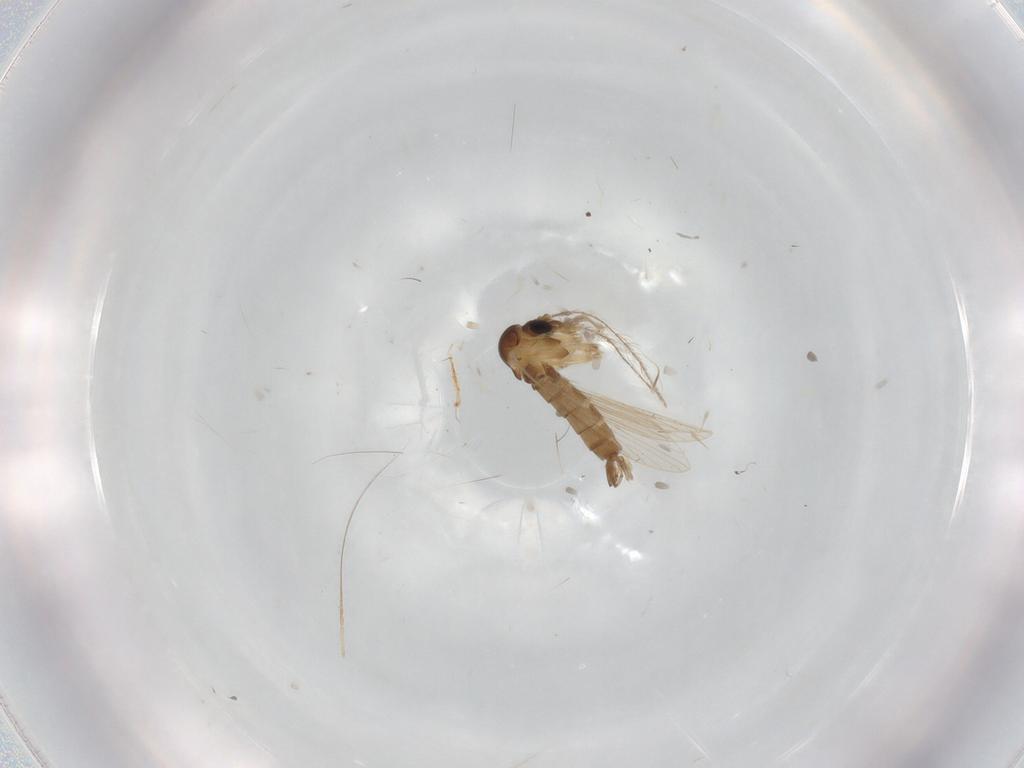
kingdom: Animalia
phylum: Arthropoda
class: Insecta
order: Diptera
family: Psychodidae
